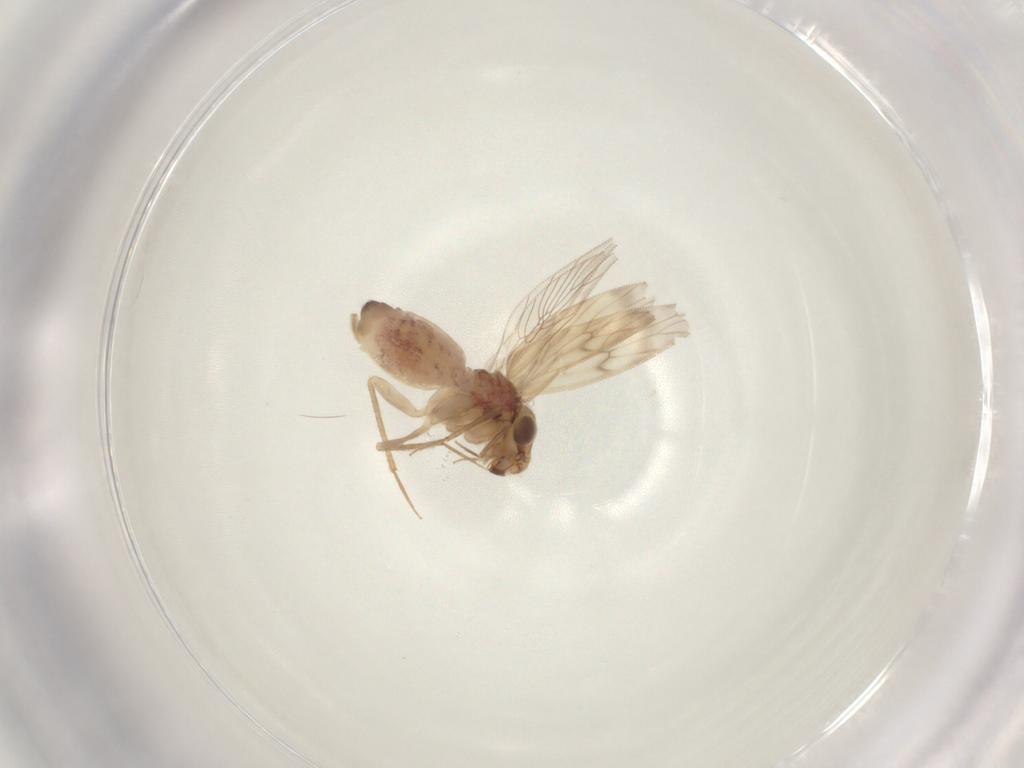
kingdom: Animalia
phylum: Arthropoda
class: Insecta
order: Psocodea
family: Lepidopsocidae
